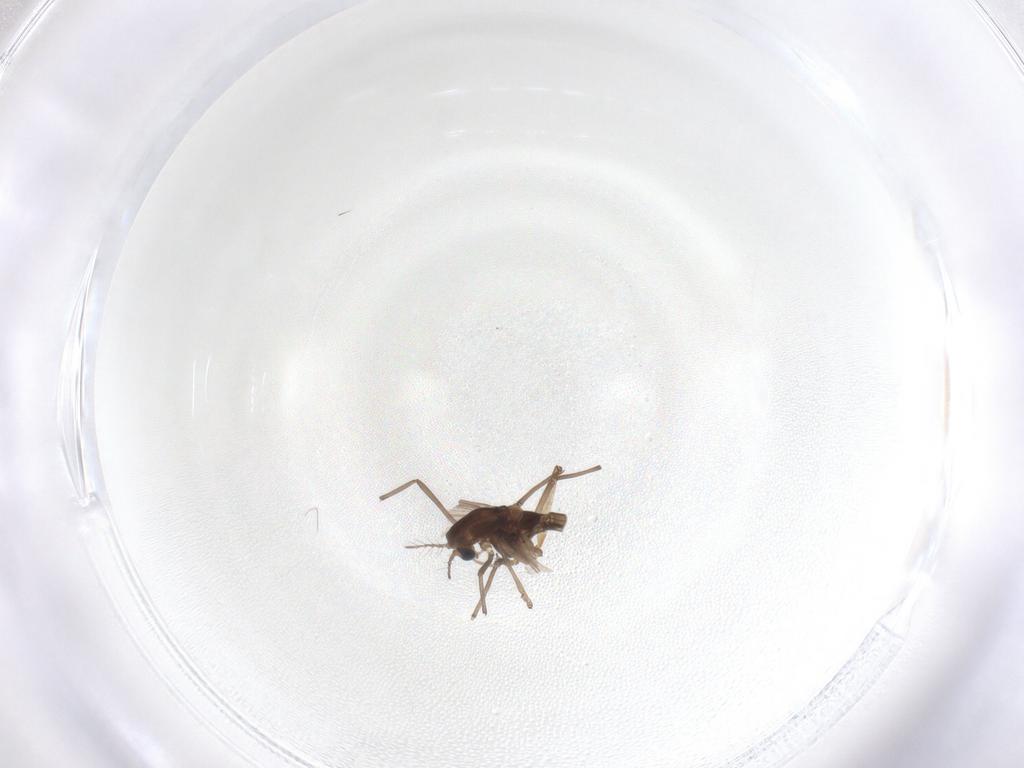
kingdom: Animalia
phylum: Arthropoda
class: Insecta
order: Diptera
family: Chironomidae
